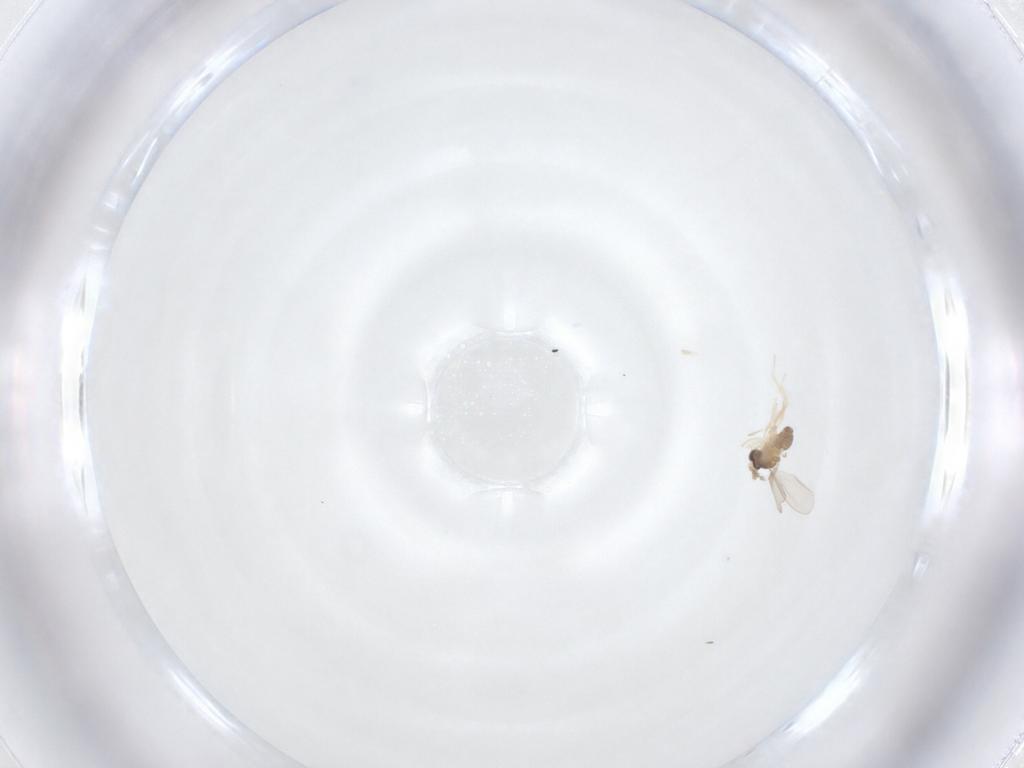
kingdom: Animalia
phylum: Arthropoda
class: Insecta
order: Diptera
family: Cecidomyiidae
